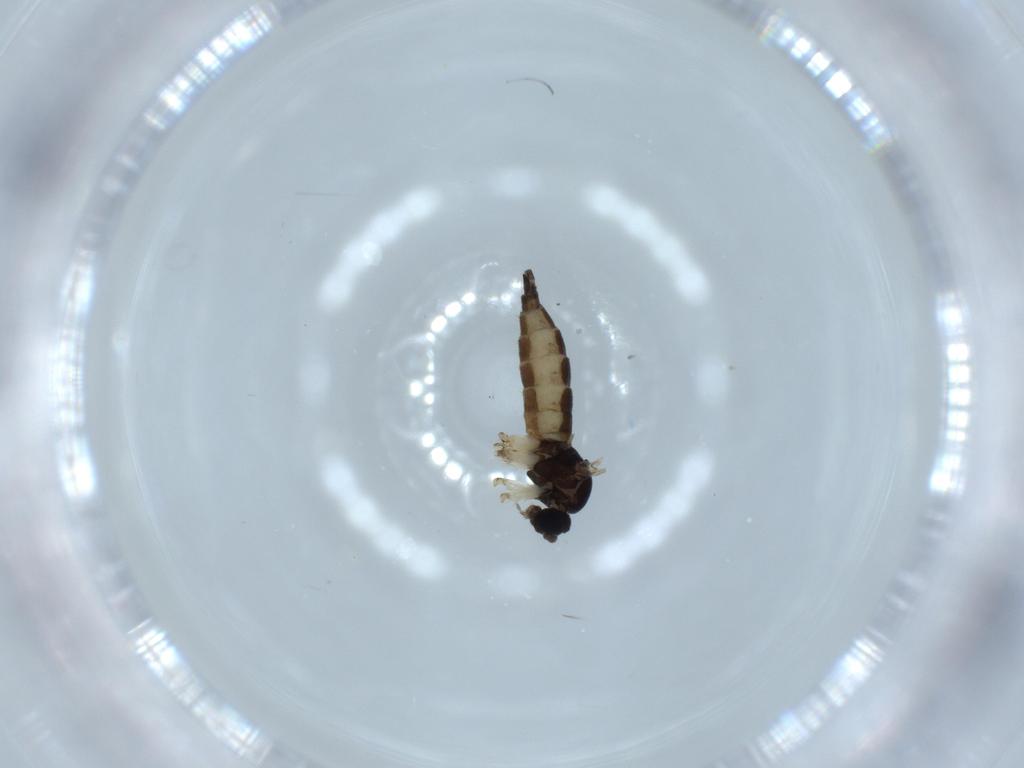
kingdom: Animalia
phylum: Arthropoda
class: Insecta
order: Diptera
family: Sciaridae
